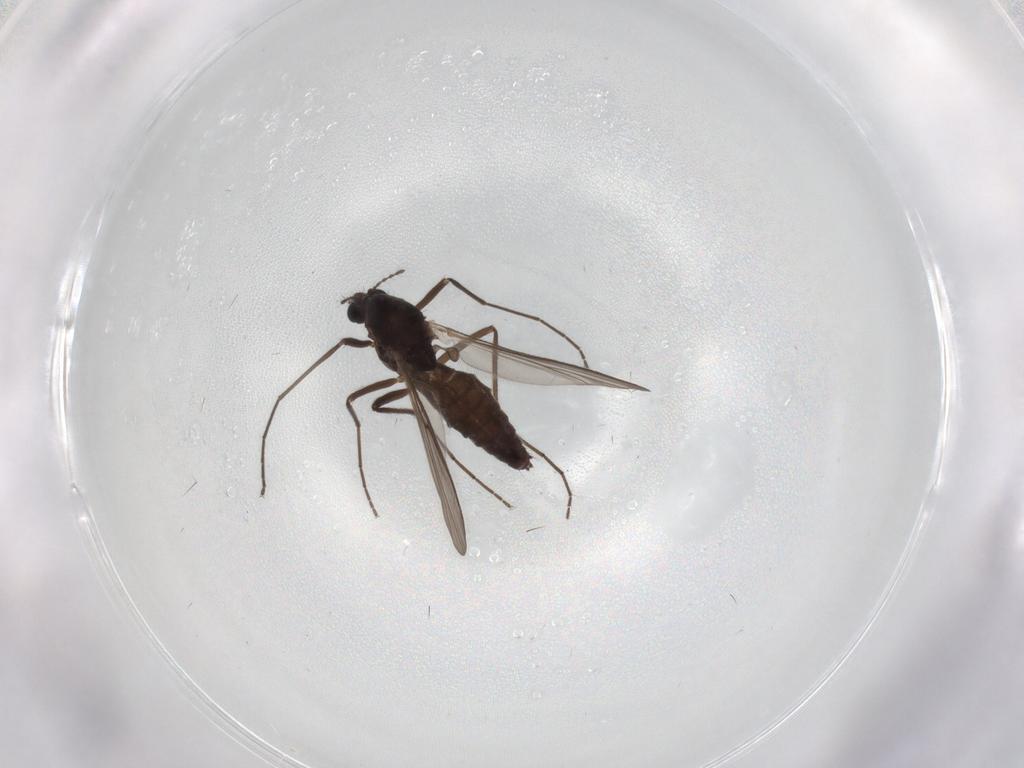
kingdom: Animalia
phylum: Arthropoda
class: Insecta
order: Diptera
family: Chironomidae
